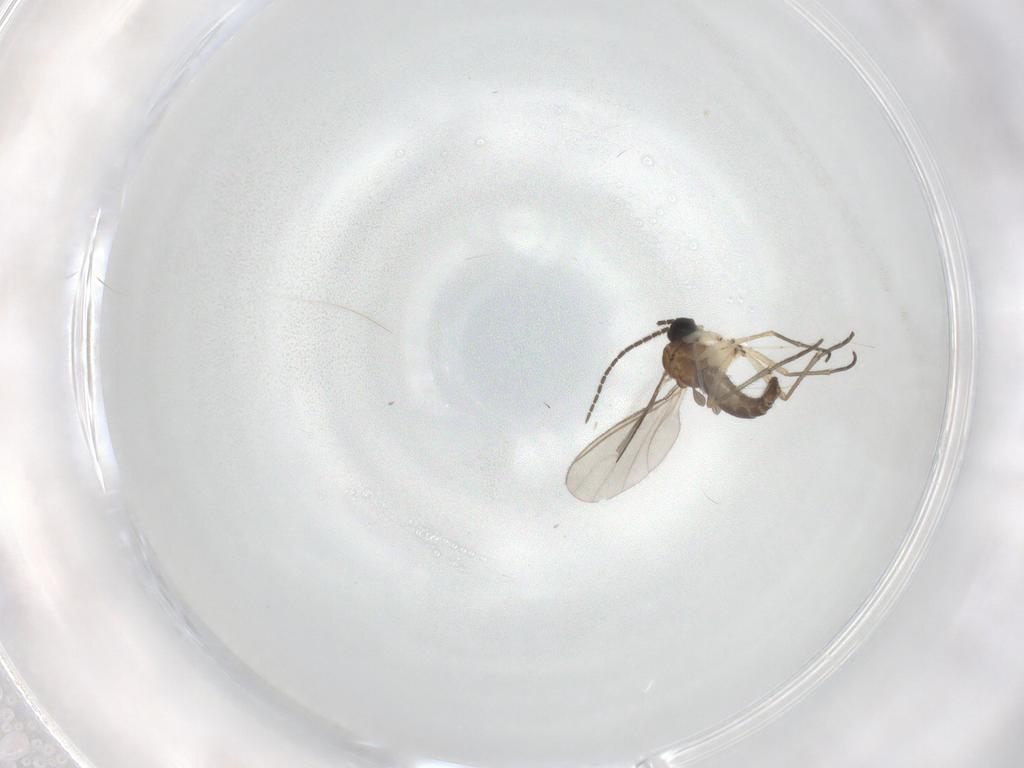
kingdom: Animalia
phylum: Arthropoda
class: Insecta
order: Diptera
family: Sciaridae
